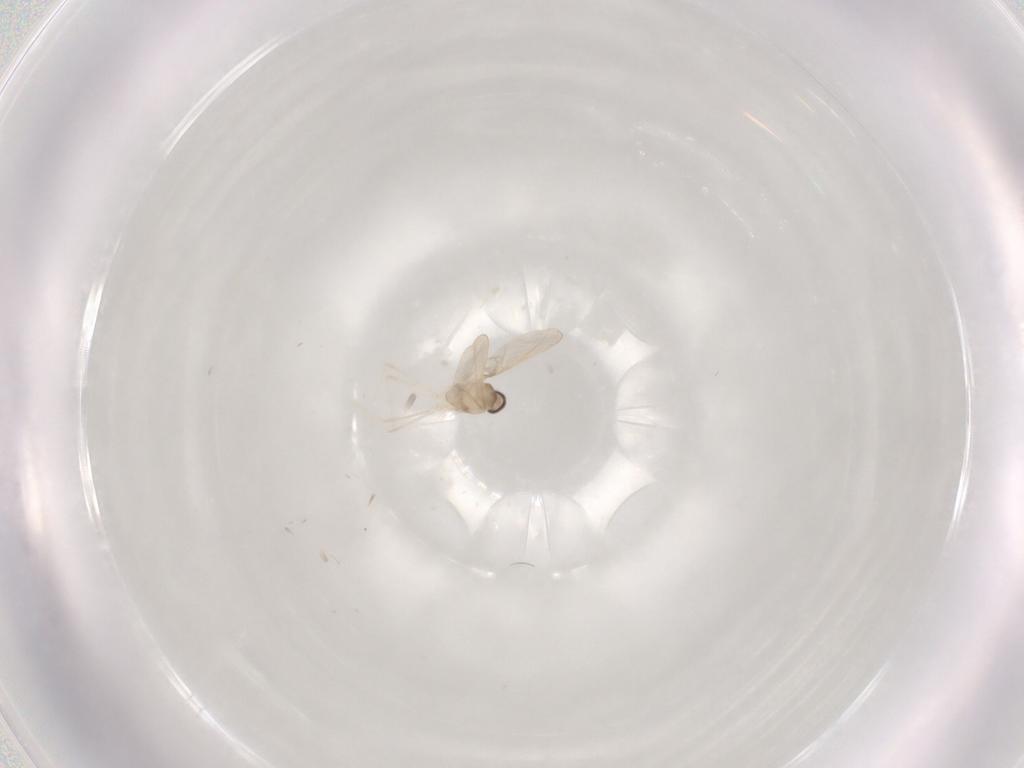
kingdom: Animalia
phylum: Arthropoda
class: Insecta
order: Diptera
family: Cecidomyiidae
